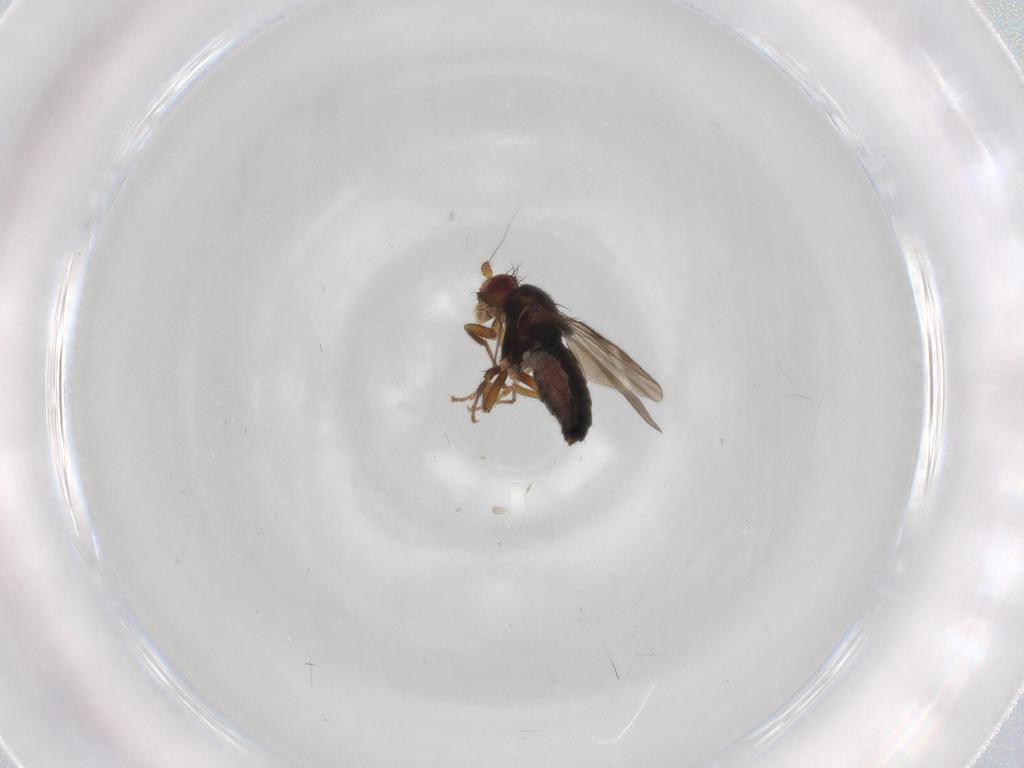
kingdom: Animalia
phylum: Arthropoda
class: Insecta
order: Diptera
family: Sphaeroceridae
